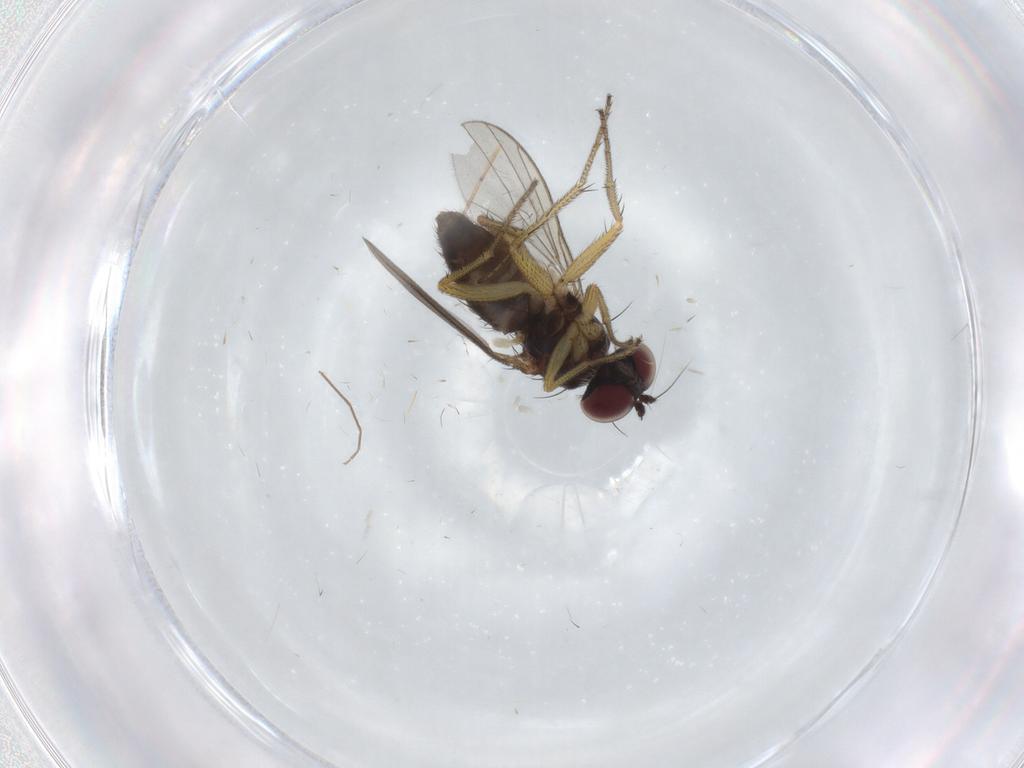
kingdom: Animalia
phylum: Arthropoda
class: Insecta
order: Diptera
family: Dolichopodidae
